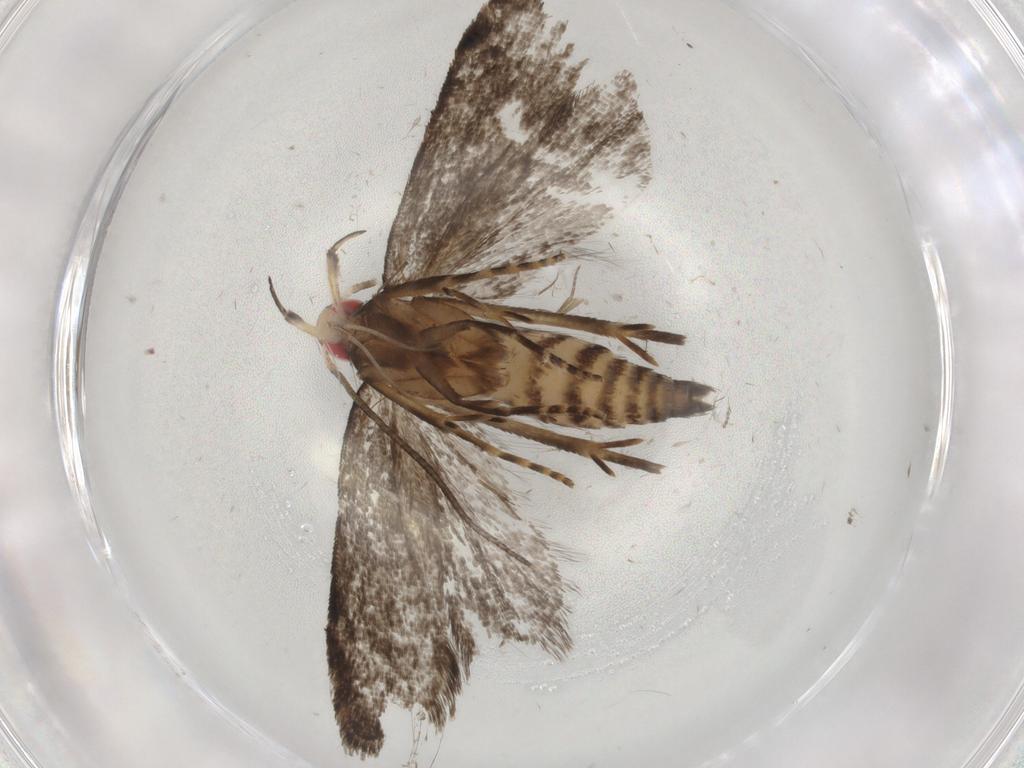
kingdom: Animalia
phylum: Arthropoda
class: Insecta
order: Lepidoptera
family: Gelechiidae
